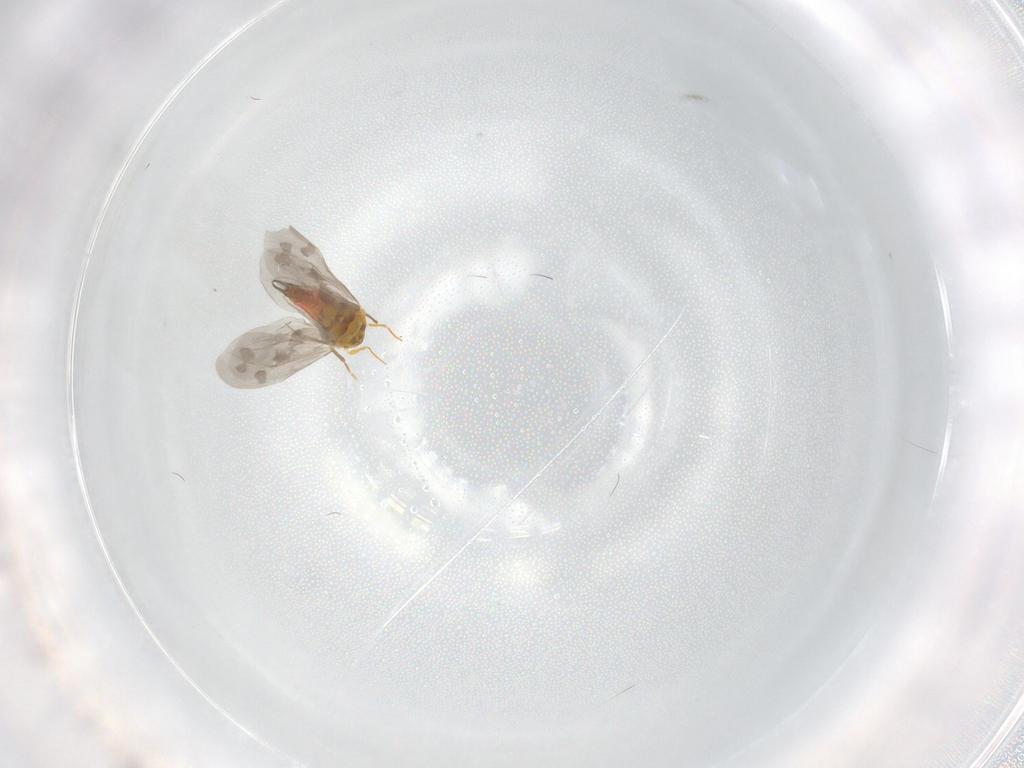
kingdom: Animalia
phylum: Arthropoda
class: Insecta
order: Hemiptera
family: Aleyrodidae
